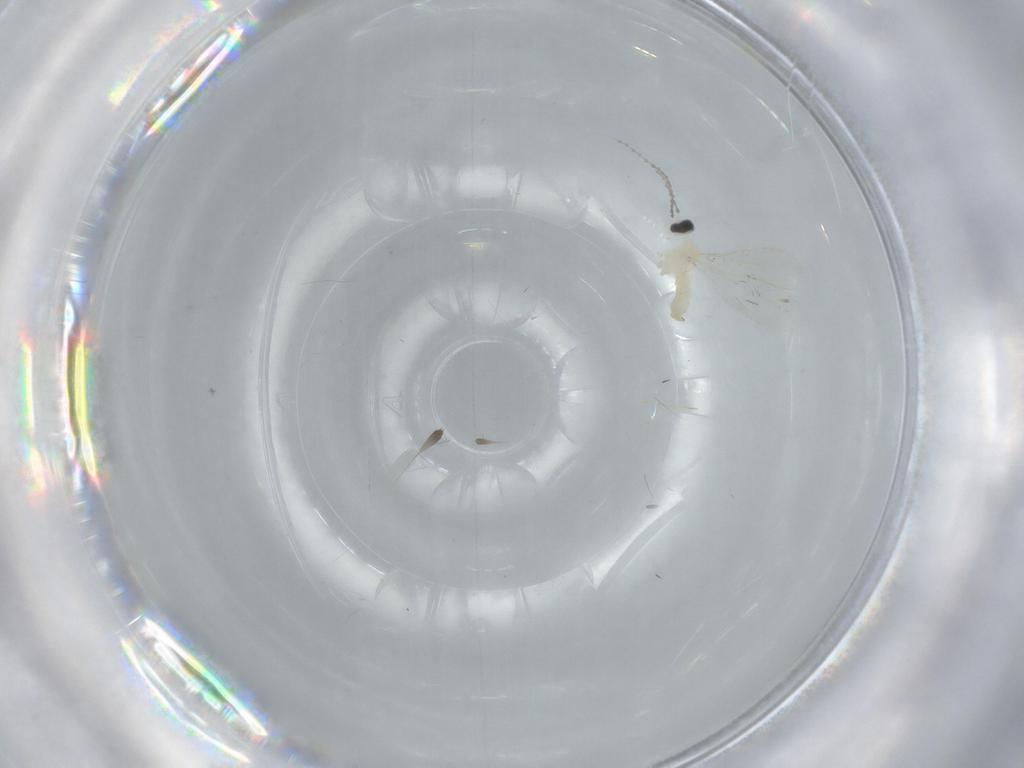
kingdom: Animalia
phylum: Arthropoda
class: Insecta
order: Diptera
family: Cecidomyiidae
